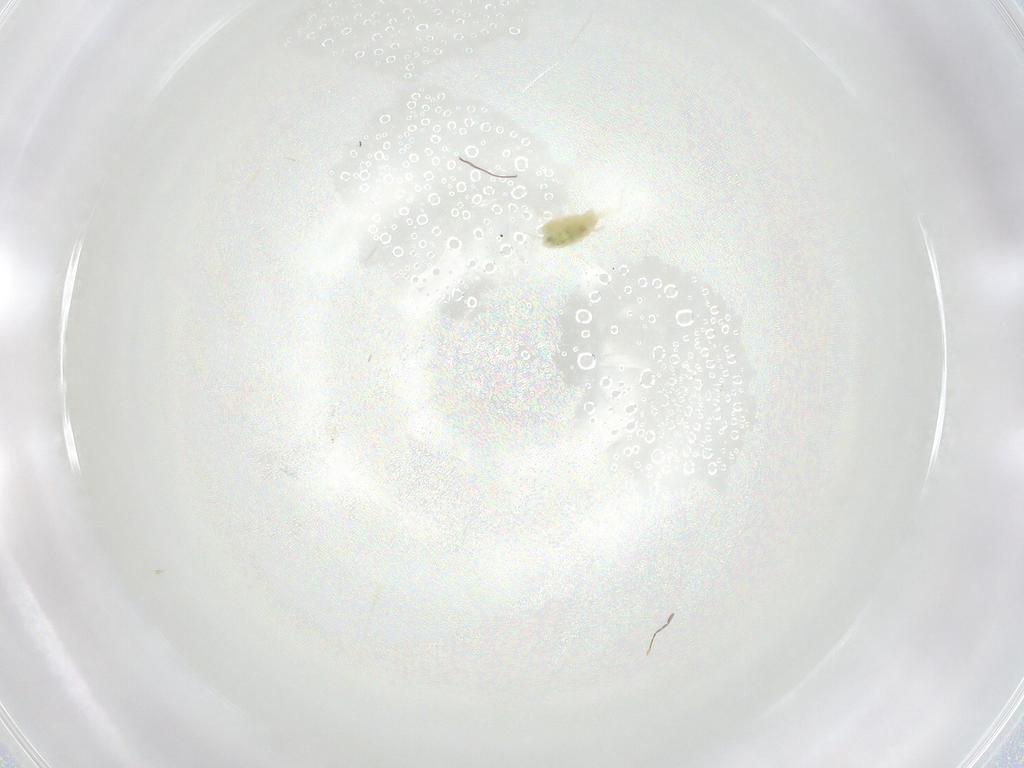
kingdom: Animalia
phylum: Arthropoda
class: Arachnida
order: Trombidiformes
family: Tetranychidae
